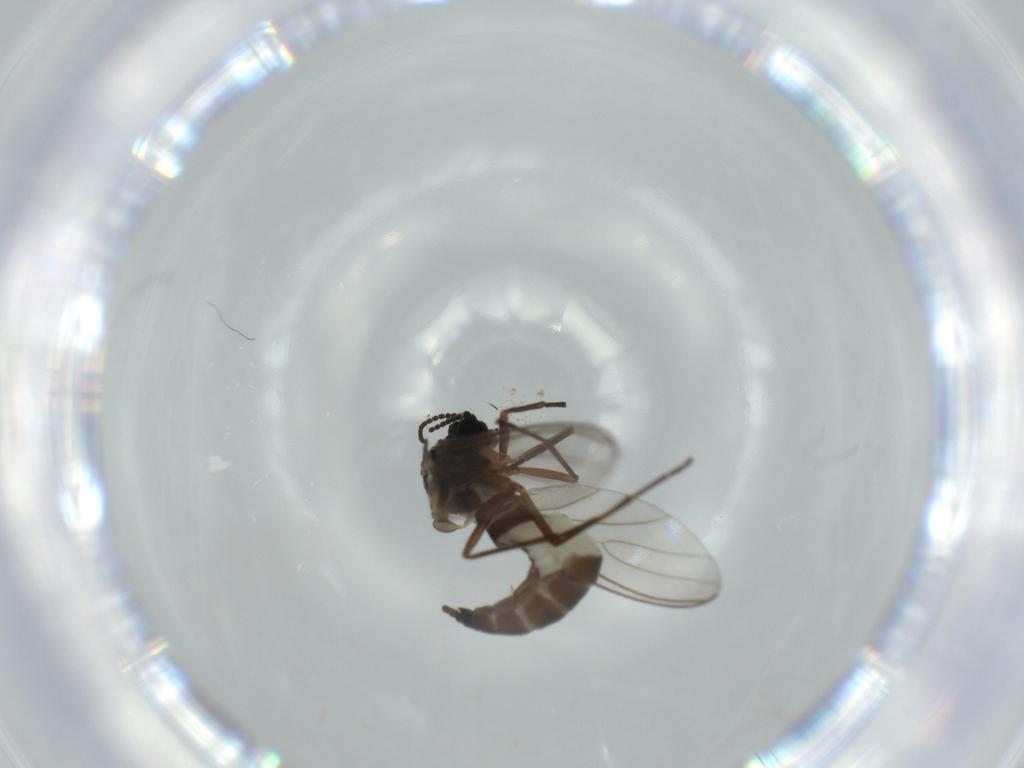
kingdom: Animalia
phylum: Arthropoda
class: Insecta
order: Diptera
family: Sciaridae
